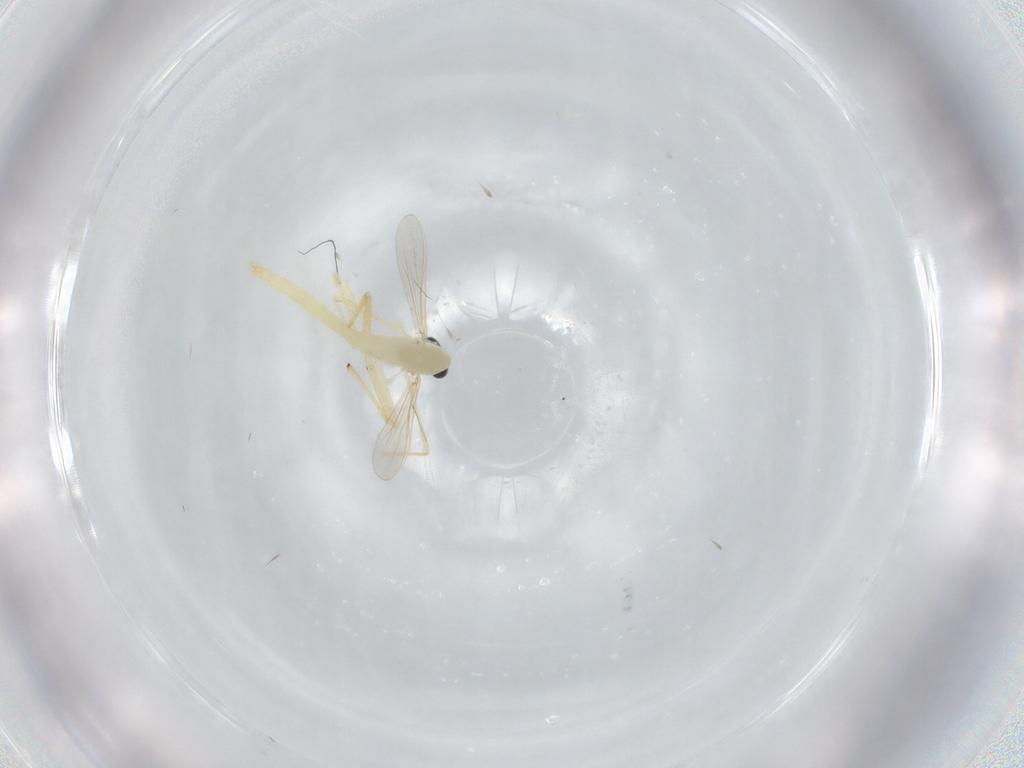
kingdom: Animalia
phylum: Arthropoda
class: Insecta
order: Diptera
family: Chironomidae
